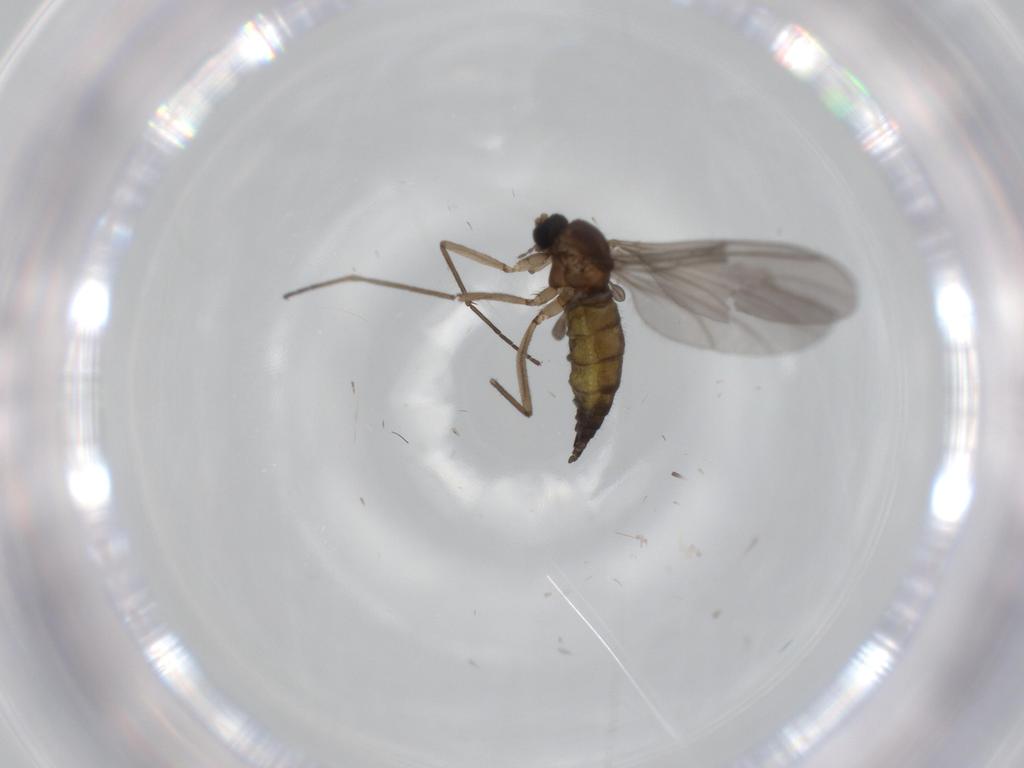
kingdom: Animalia
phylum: Arthropoda
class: Insecta
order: Diptera
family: Sciaridae
